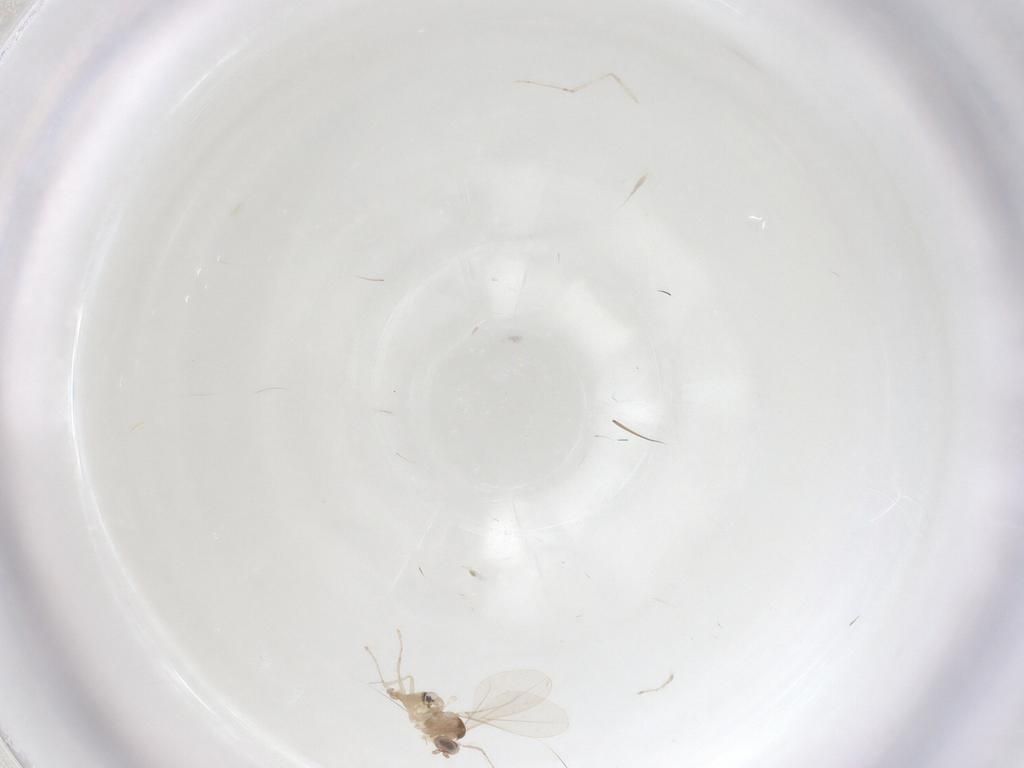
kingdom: Animalia
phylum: Arthropoda
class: Insecta
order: Diptera
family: Cecidomyiidae
